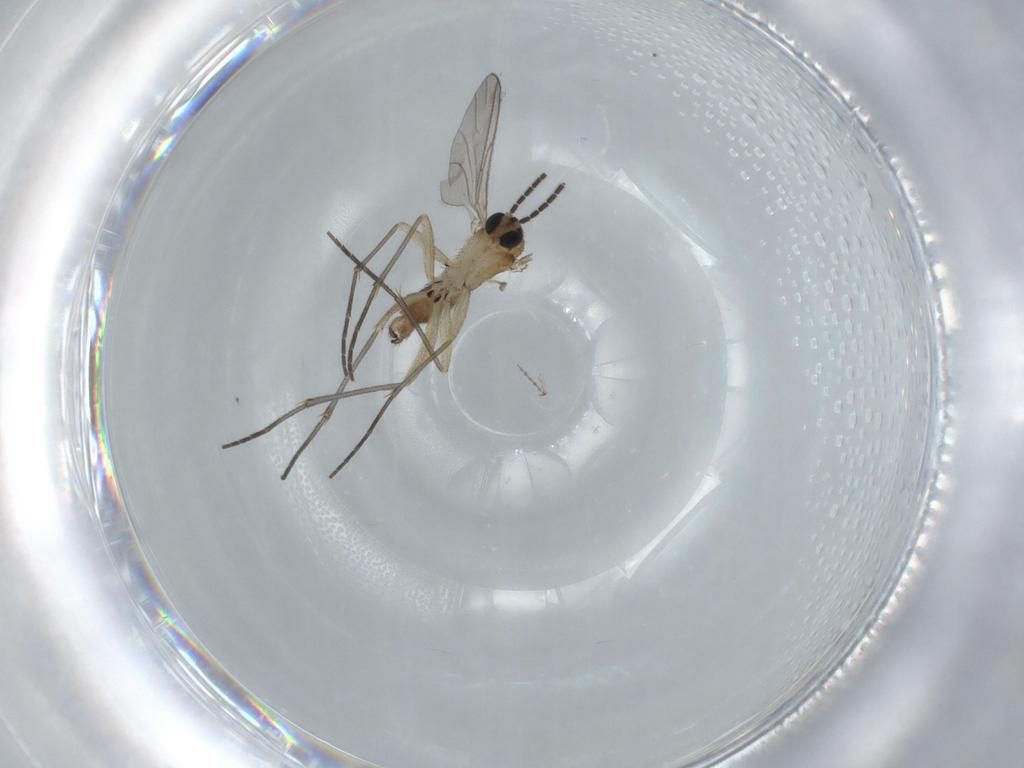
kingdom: Animalia
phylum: Arthropoda
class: Insecta
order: Diptera
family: Sciaridae
